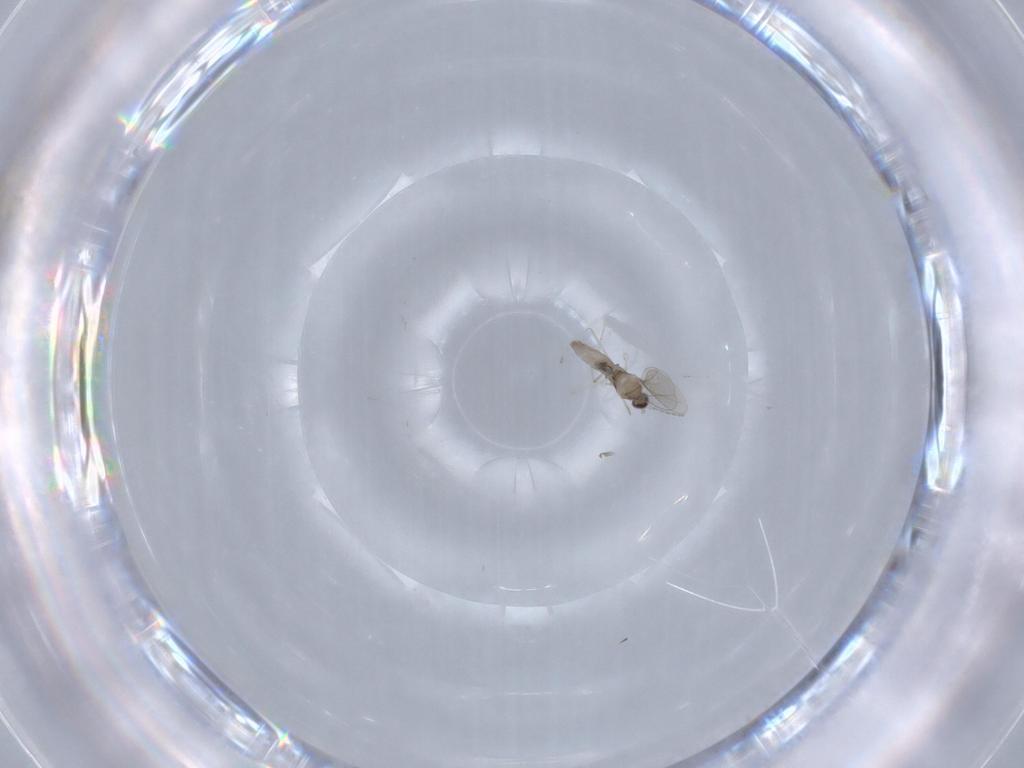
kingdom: Animalia
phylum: Arthropoda
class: Insecta
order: Diptera
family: Cecidomyiidae
